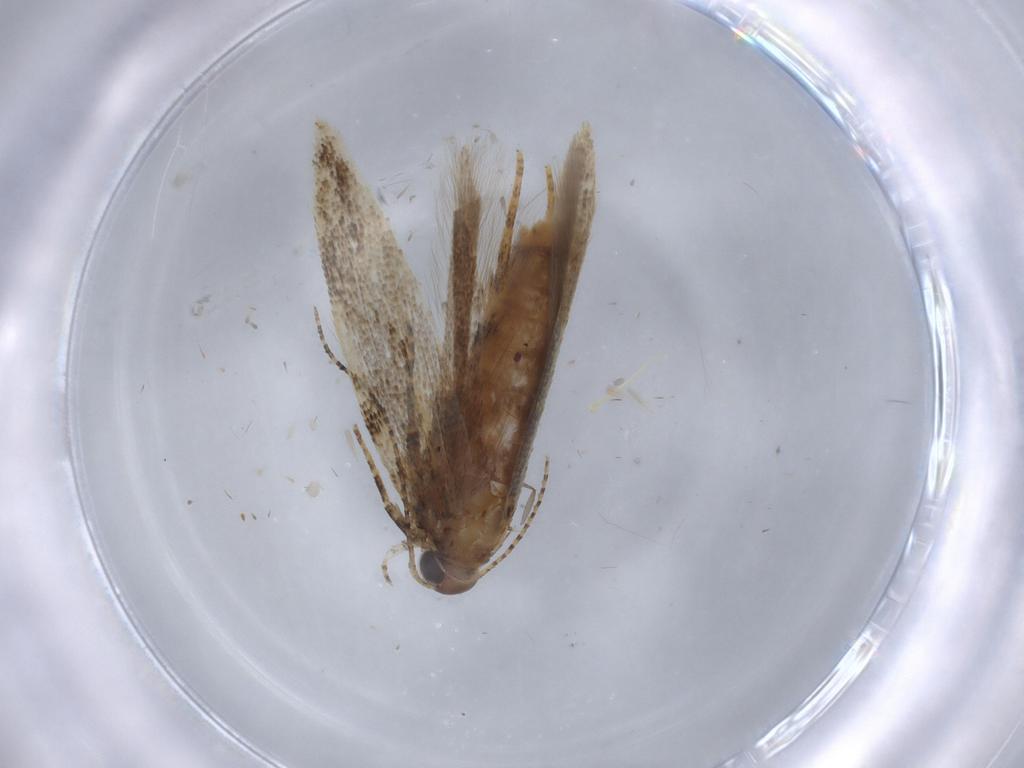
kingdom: Animalia
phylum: Arthropoda
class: Insecta
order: Lepidoptera
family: Gelechiidae
